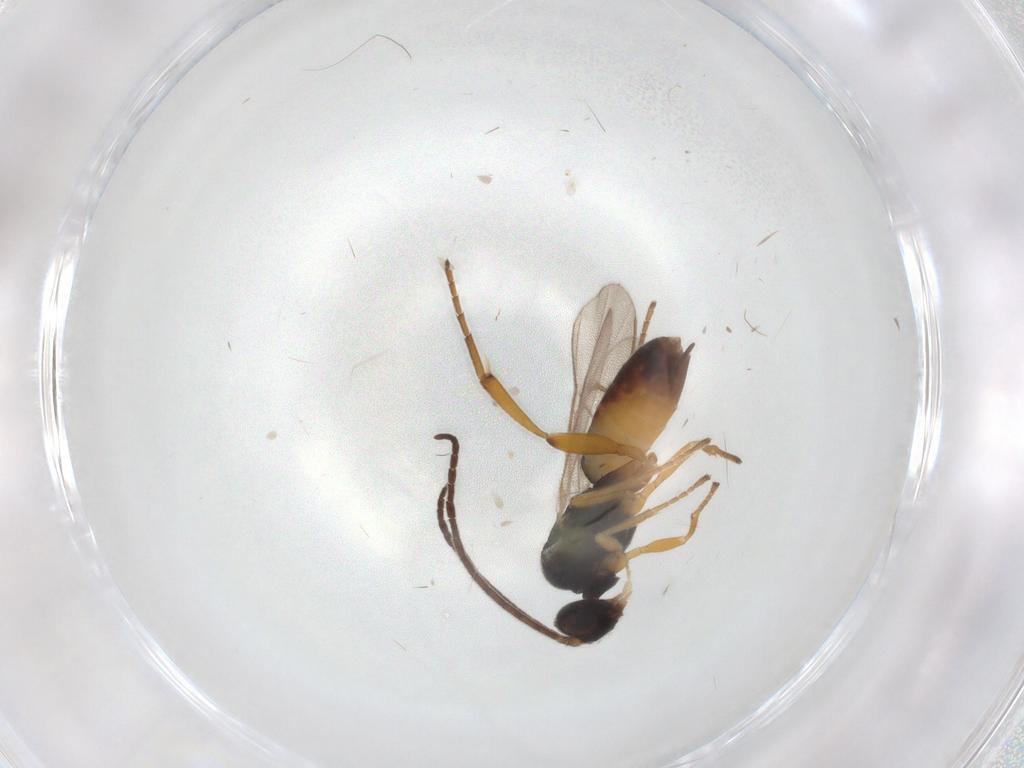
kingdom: Animalia
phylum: Arthropoda
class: Insecta
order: Hymenoptera
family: Braconidae
